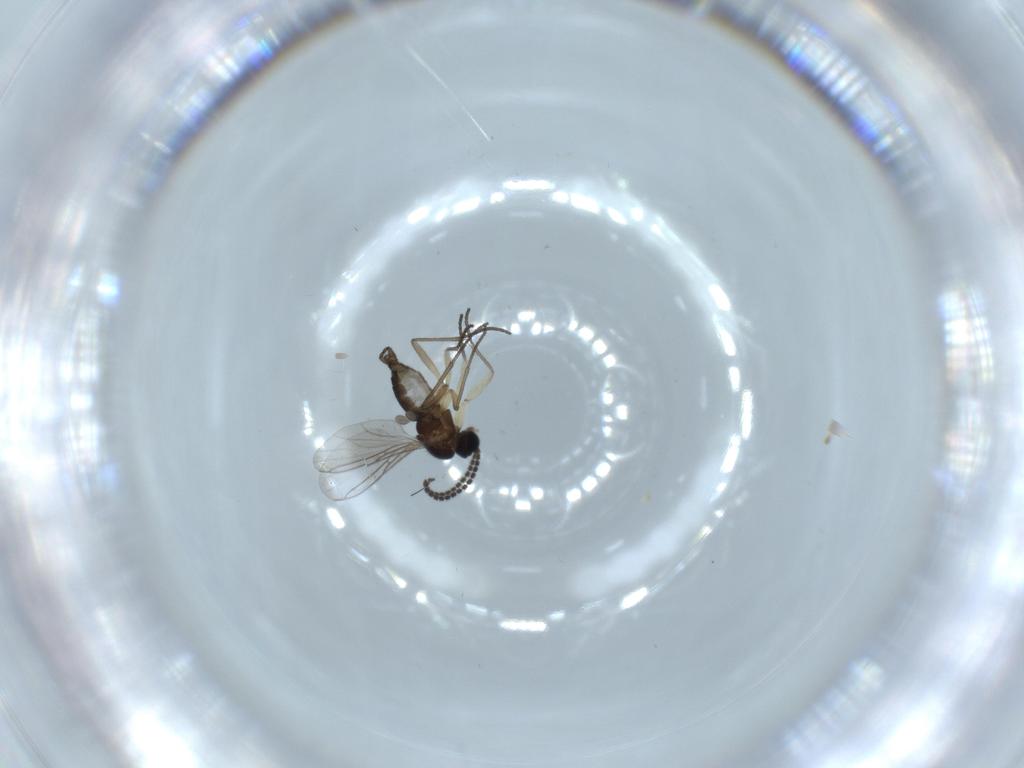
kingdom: Animalia
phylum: Arthropoda
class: Insecta
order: Diptera
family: Sciaridae
